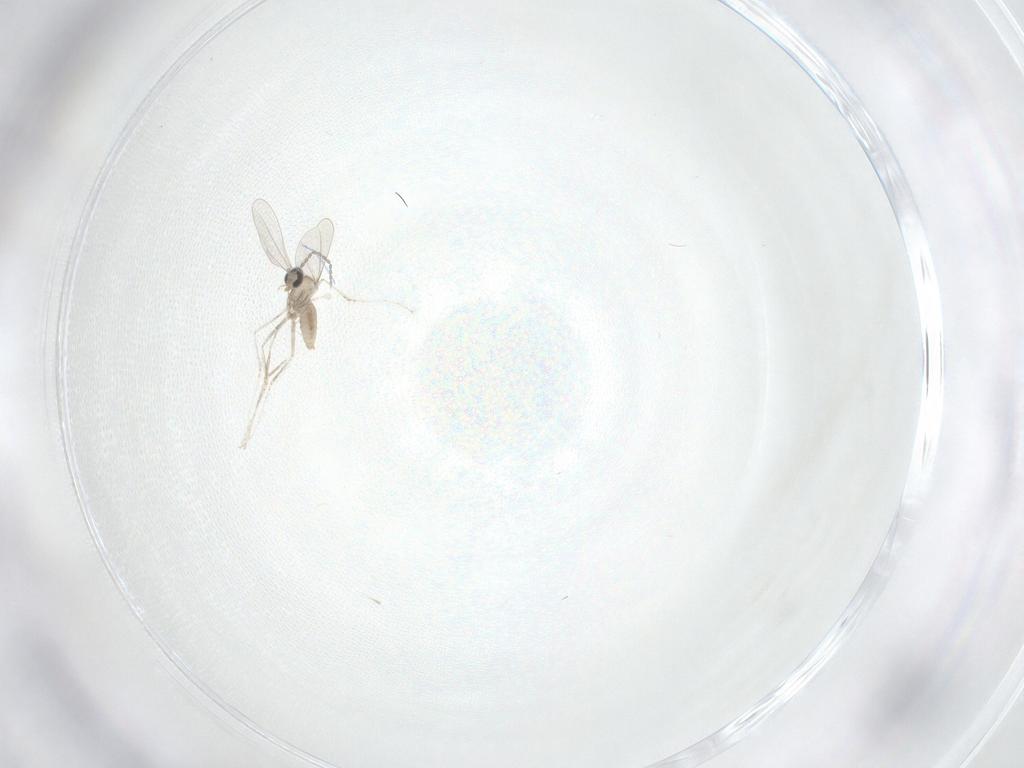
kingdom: Animalia
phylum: Arthropoda
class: Insecta
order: Diptera
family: Cecidomyiidae
